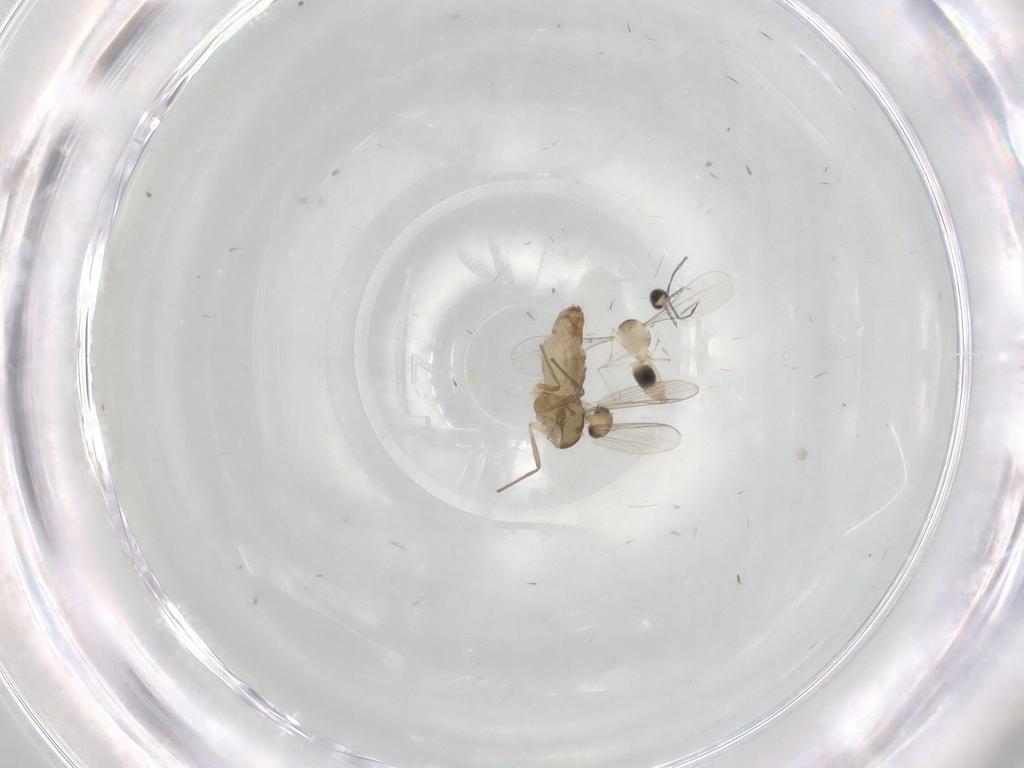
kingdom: Animalia
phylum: Arthropoda
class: Insecta
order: Diptera
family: Chironomidae
